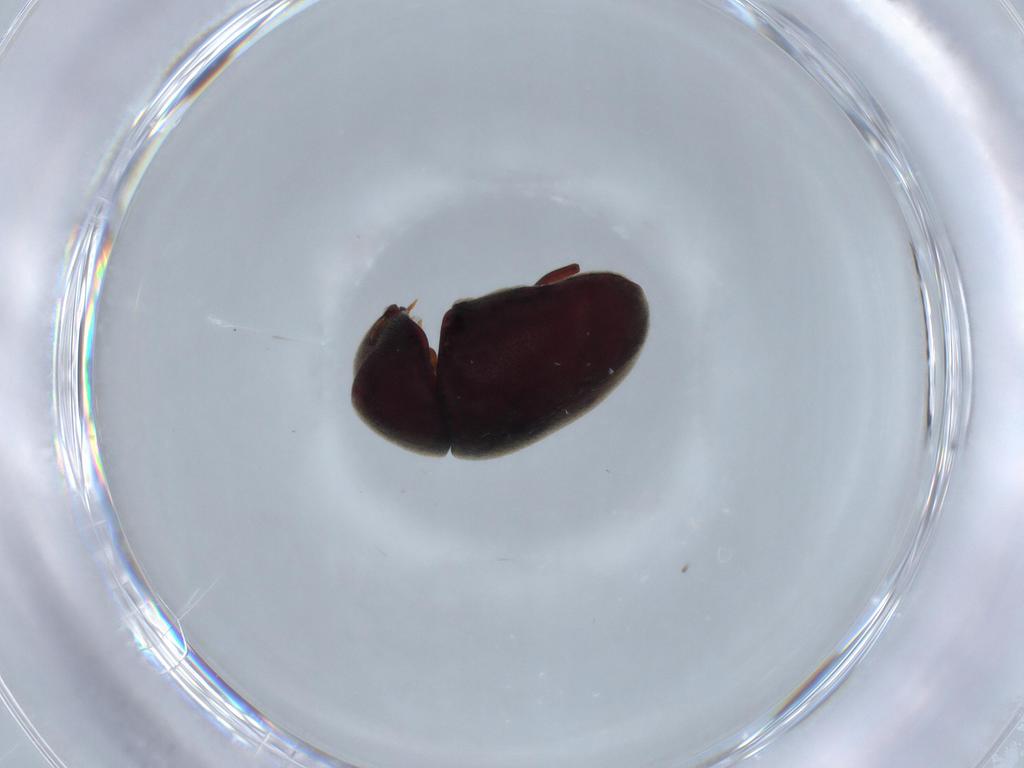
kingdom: Animalia
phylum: Arthropoda
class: Insecta
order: Coleoptera
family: Ptinidae
